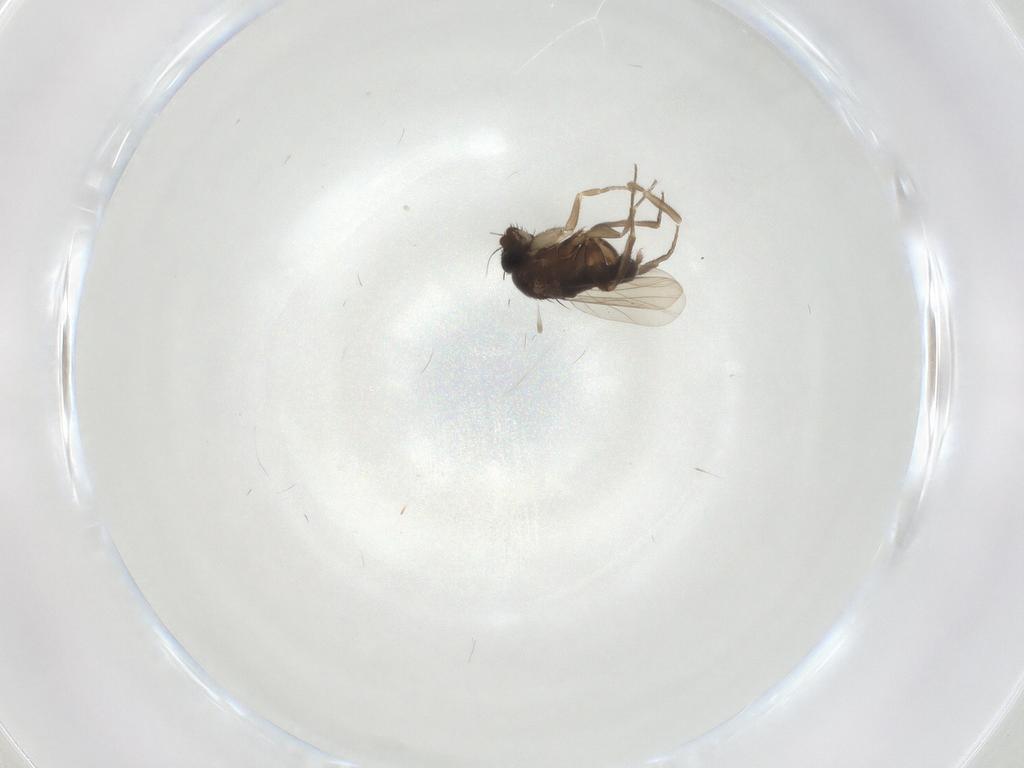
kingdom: Animalia
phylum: Arthropoda
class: Insecta
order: Diptera
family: Phoridae
